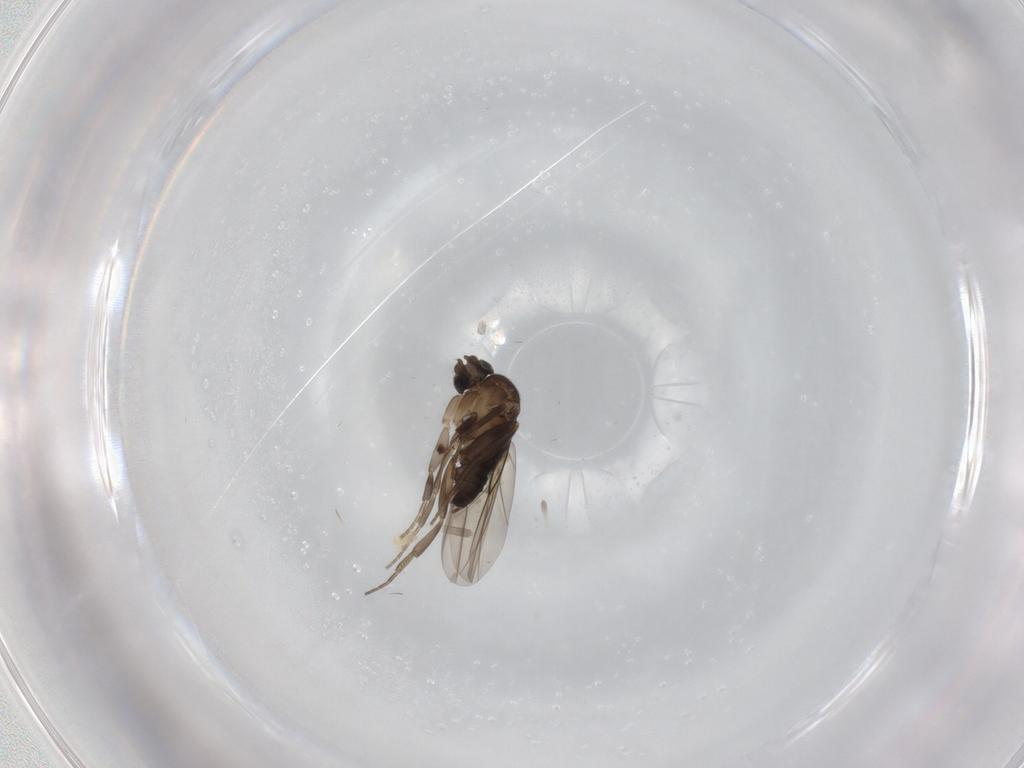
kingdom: Animalia
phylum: Arthropoda
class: Insecta
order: Diptera
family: Phoridae
